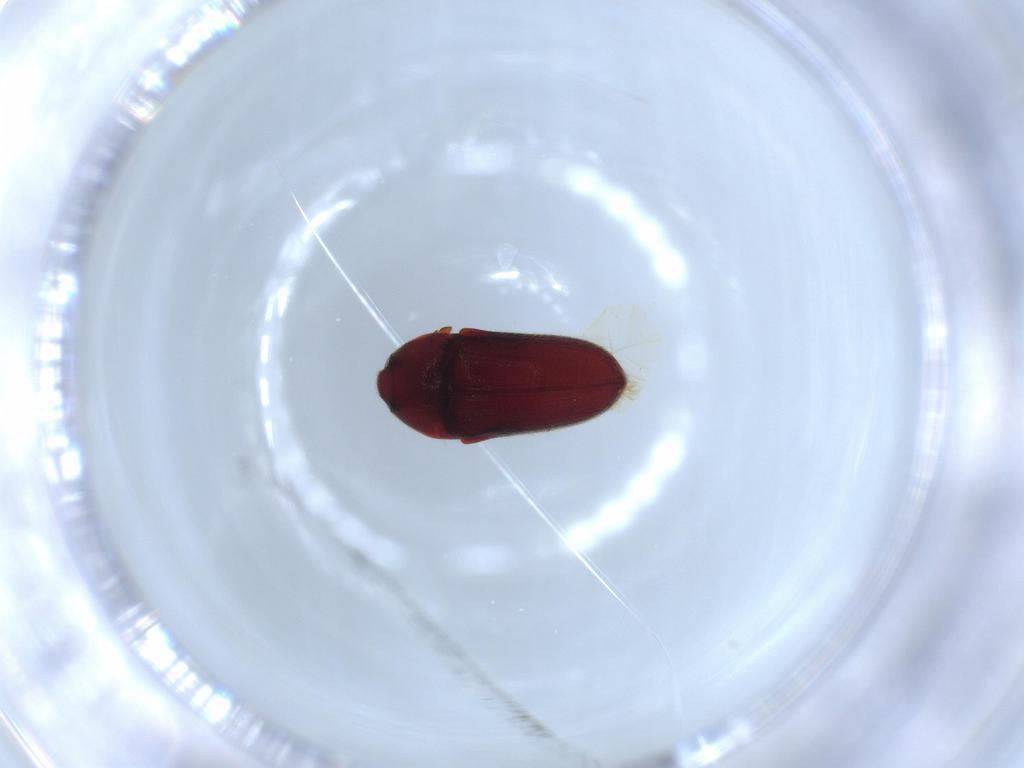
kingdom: Animalia
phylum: Arthropoda
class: Insecta
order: Coleoptera
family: Throscidae
